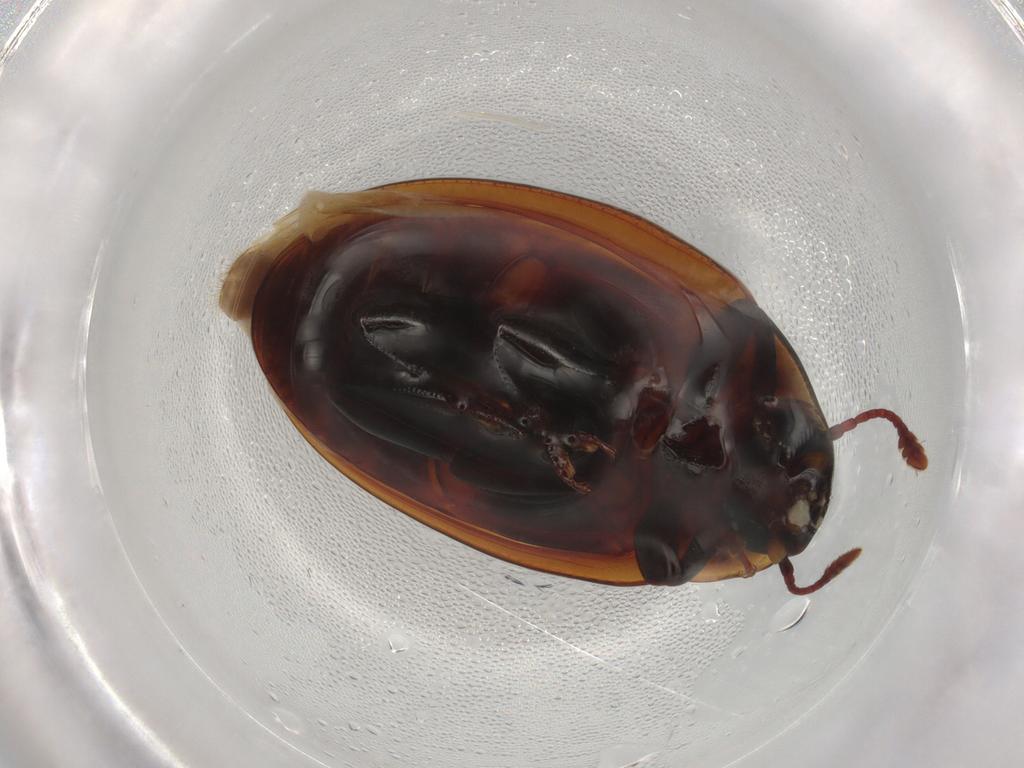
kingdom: Animalia
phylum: Arthropoda
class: Insecta
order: Coleoptera
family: Zopheridae
